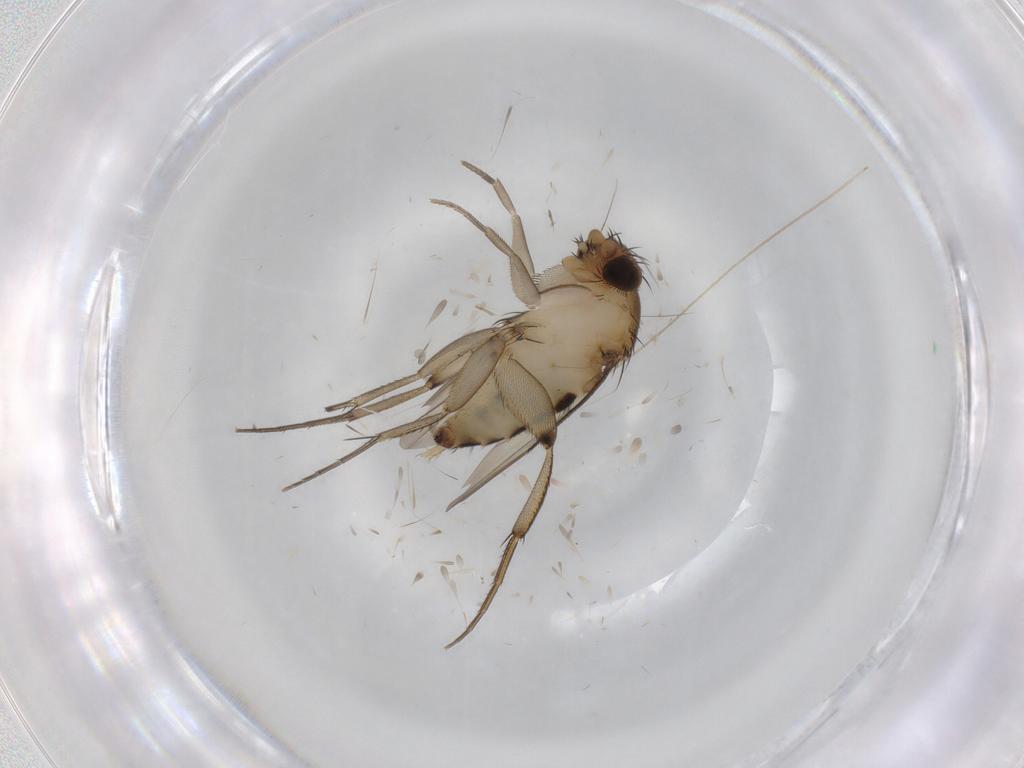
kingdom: Animalia
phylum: Arthropoda
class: Insecta
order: Diptera
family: Phoridae
